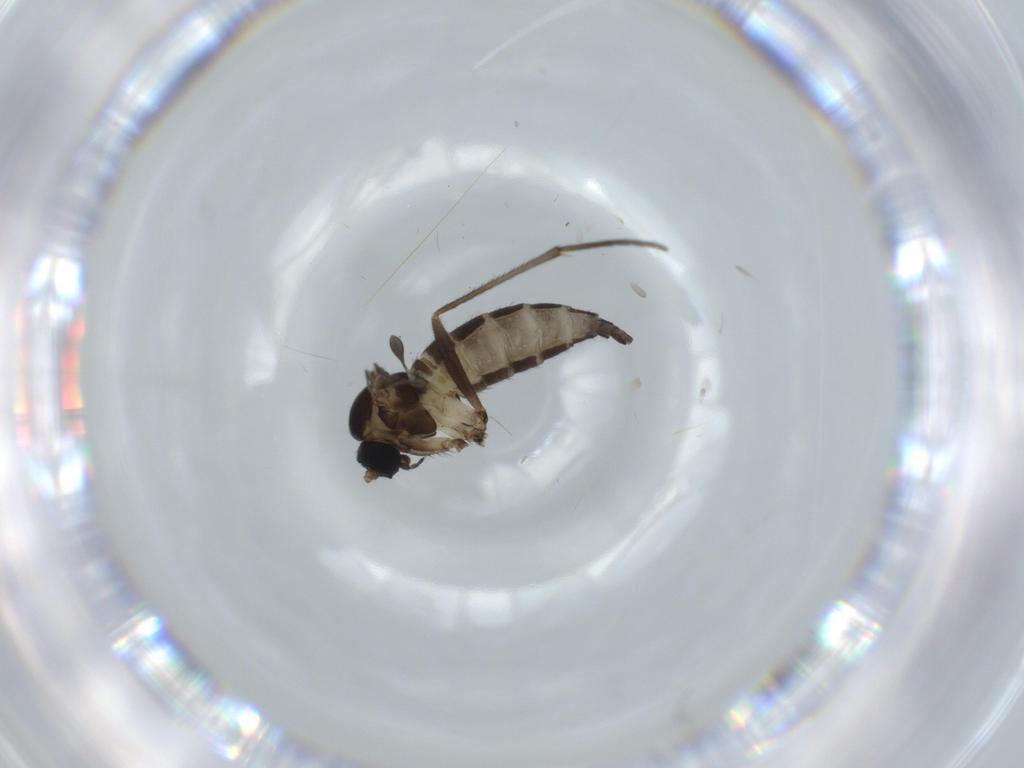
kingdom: Animalia
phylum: Arthropoda
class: Insecta
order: Diptera
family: Sciaridae
